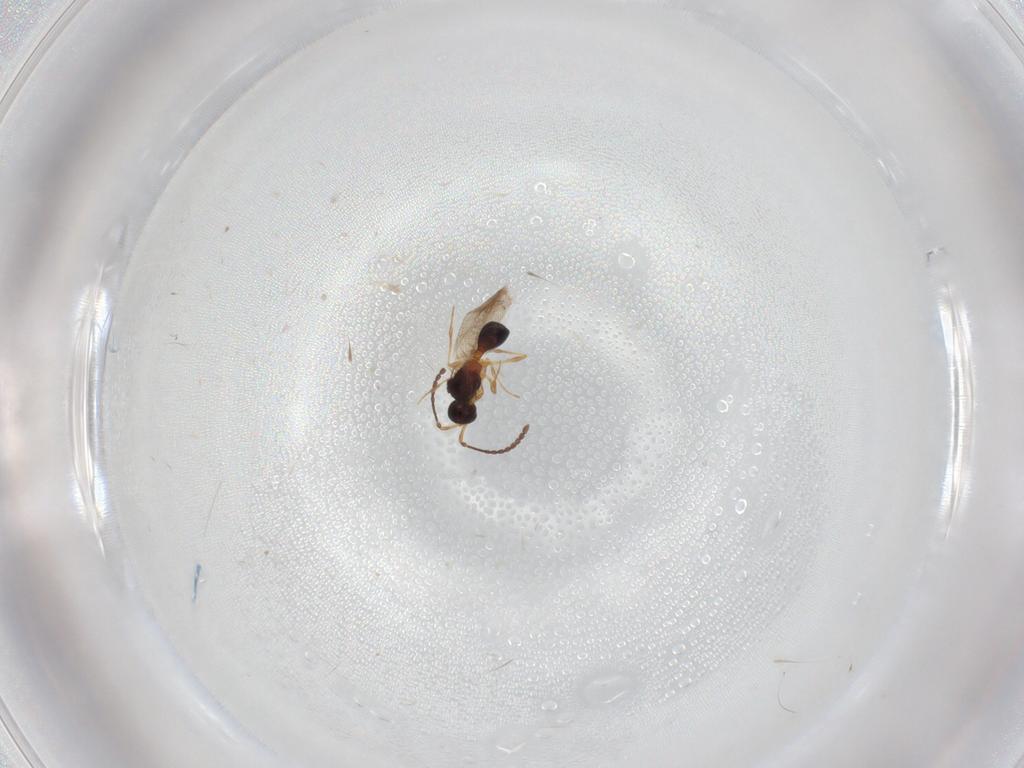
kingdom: Animalia
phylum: Arthropoda
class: Insecta
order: Hymenoptera
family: Diapriidae
